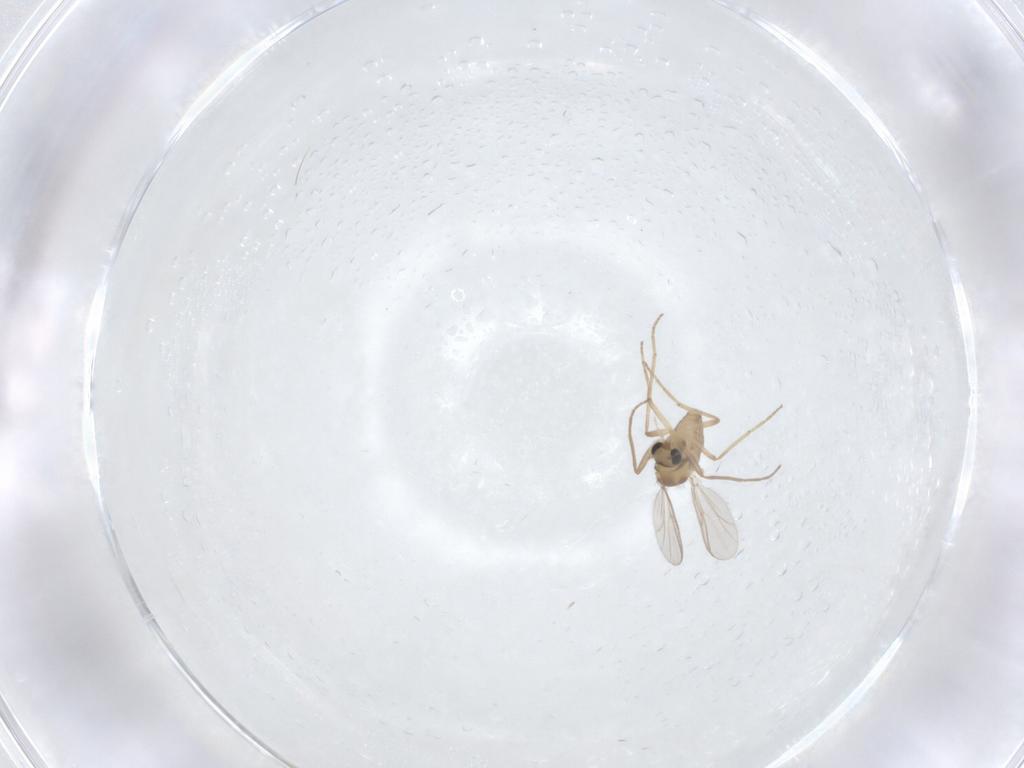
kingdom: Animalia
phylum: Arthropoda
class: Insecta
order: Diptera
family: Chironomidae
